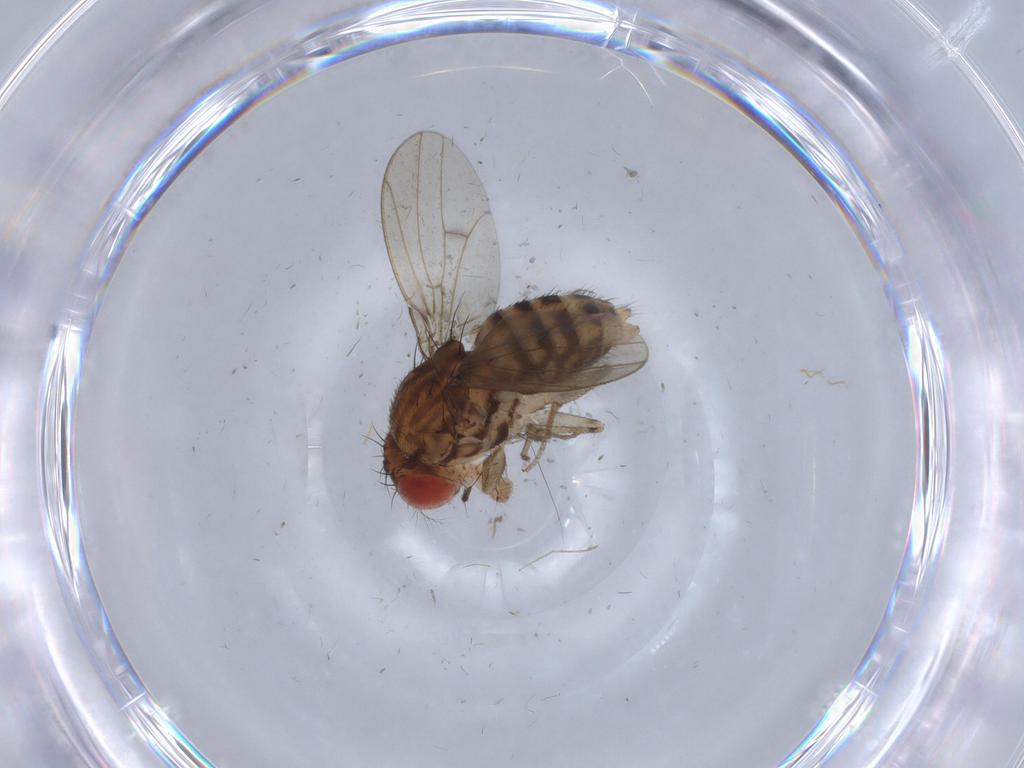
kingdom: Animalia
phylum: Arthropoda
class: Insecta
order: Diptera
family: Drosophilidae
